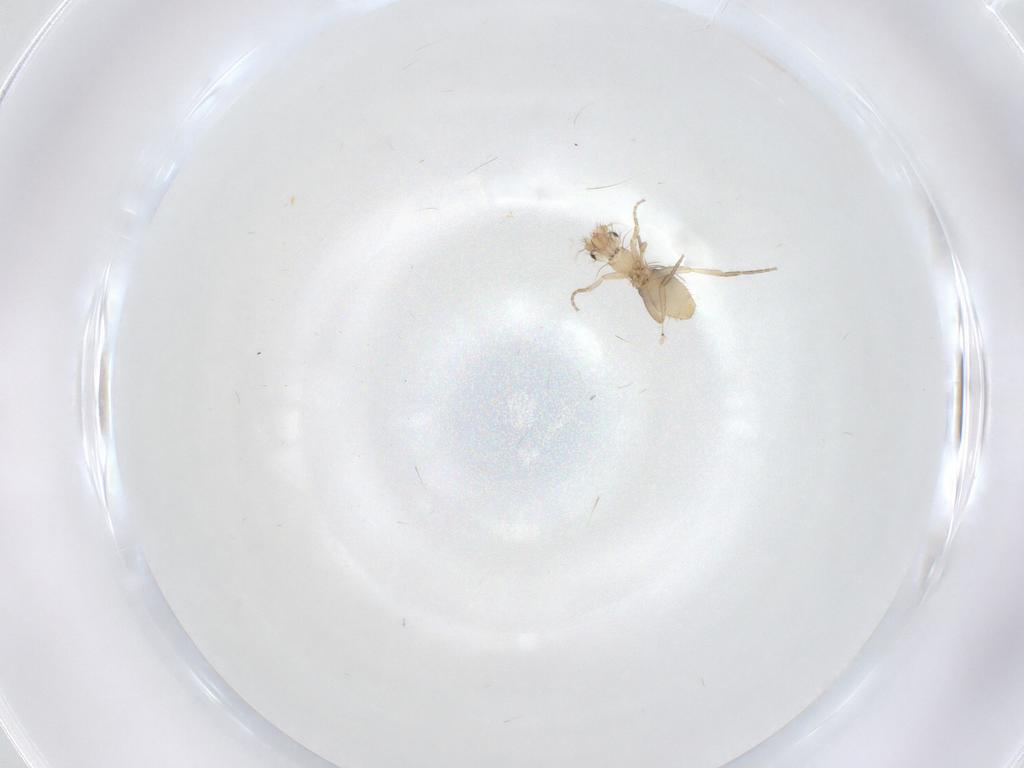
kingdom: Animalia
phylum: Arthropoda
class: Insecta
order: Diptera
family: Phoridae
